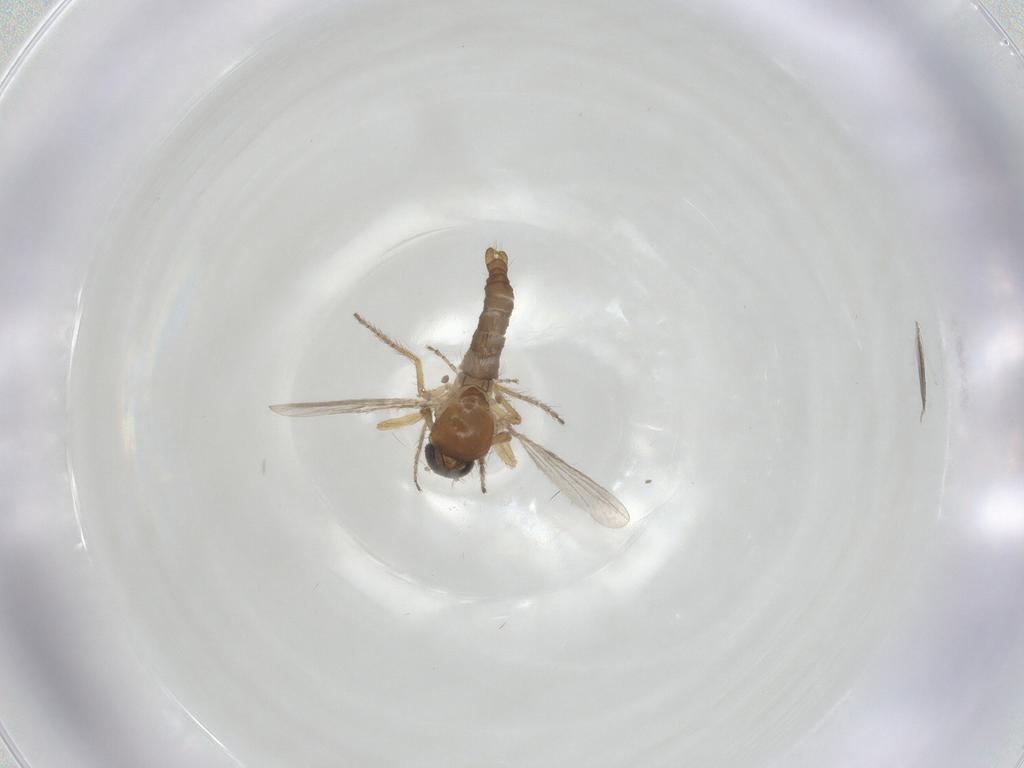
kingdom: Animalia
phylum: Arthropoda
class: Insecta
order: Diptera
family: Ceratopogonidae
